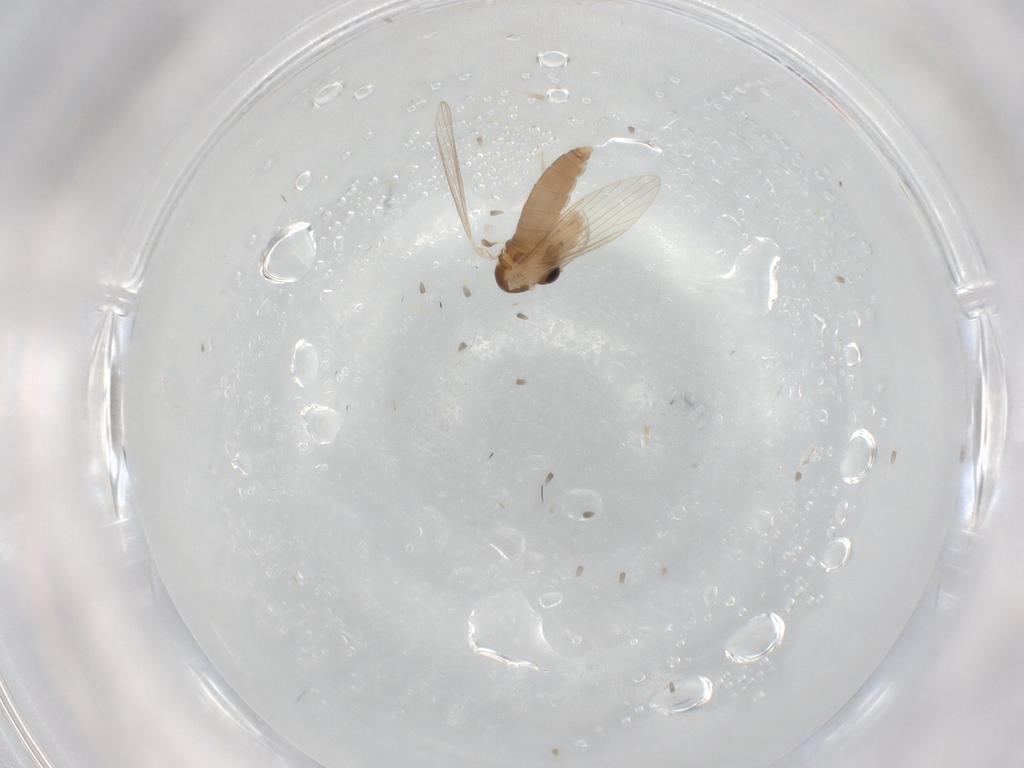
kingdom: Animalia
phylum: Arthropoda
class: Insecta
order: Diptera
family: Psychodidae
